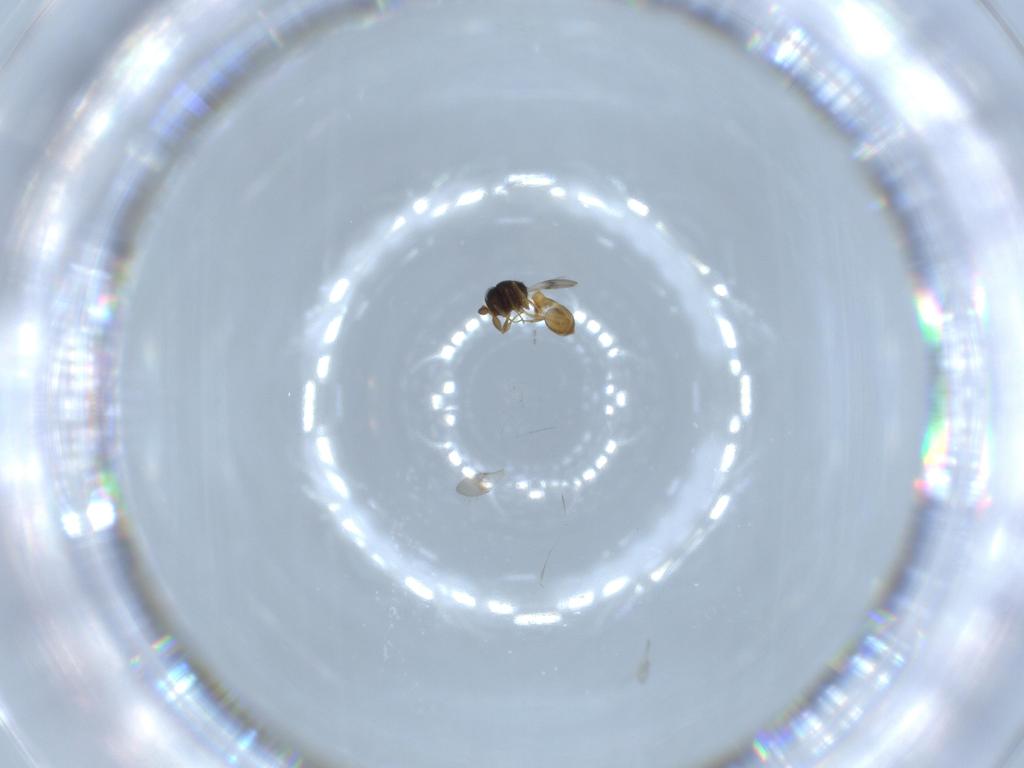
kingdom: Animalia
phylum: Arthropoda
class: Insecta
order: Hymenoptera
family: Scelionidae
